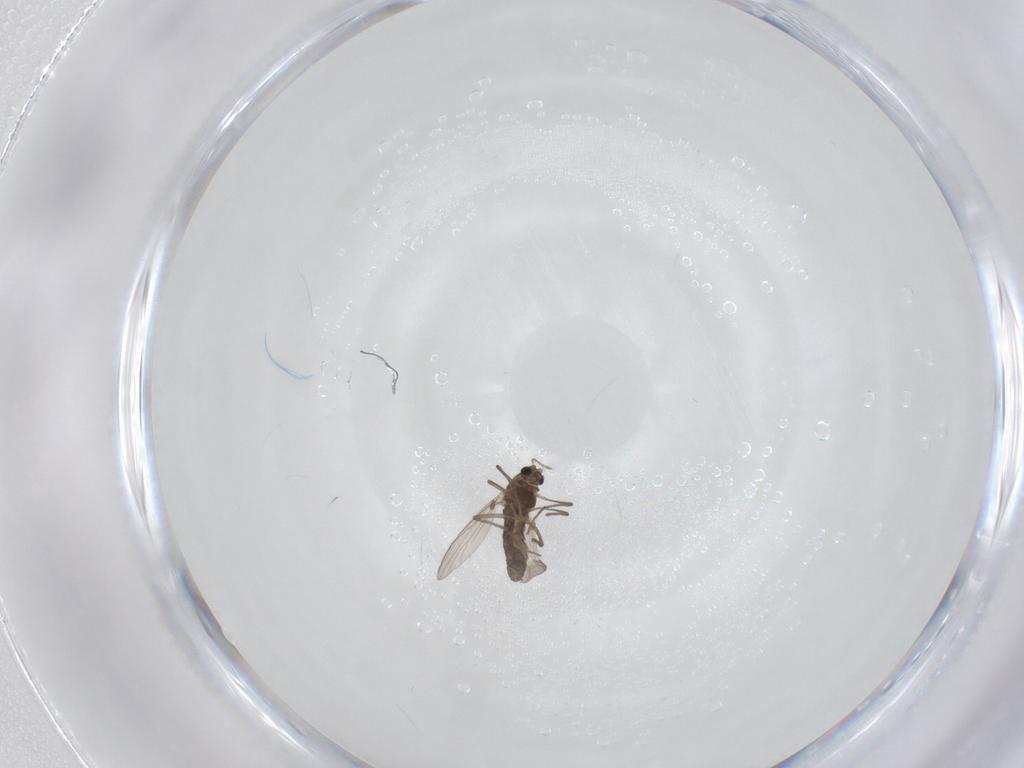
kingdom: Animalia
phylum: Arthropoda
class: Insecta
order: Diptera
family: Chironomidae
